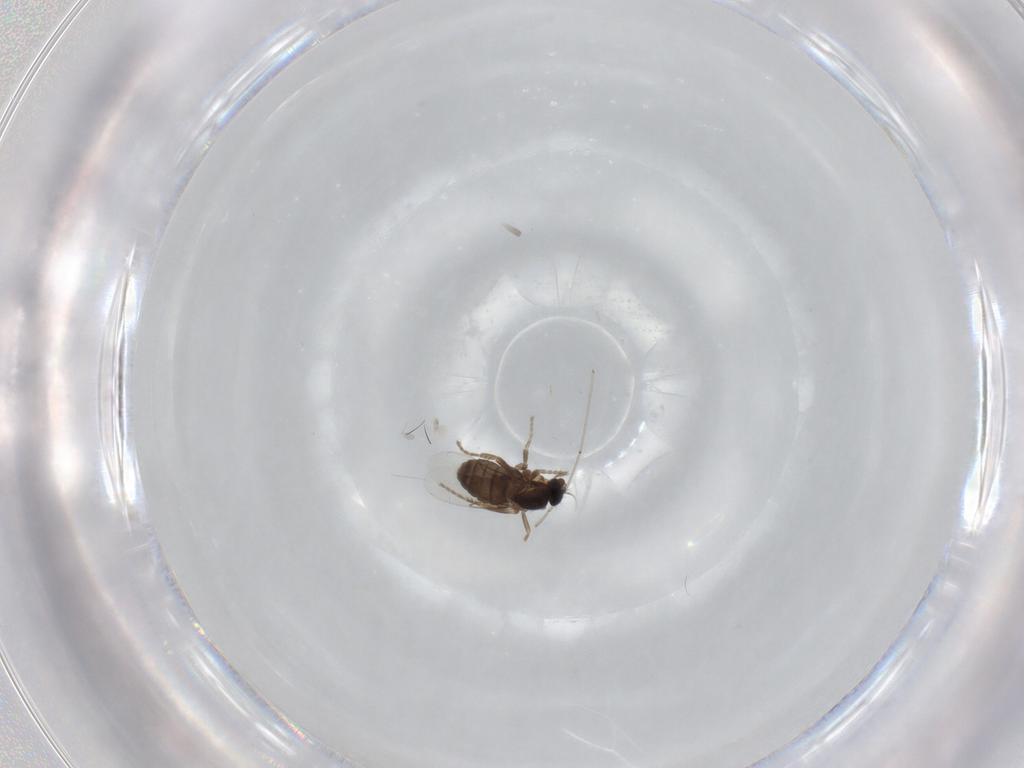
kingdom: Animalia
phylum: Arthropoda
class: Insecta
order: Diptera
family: Phoridae
